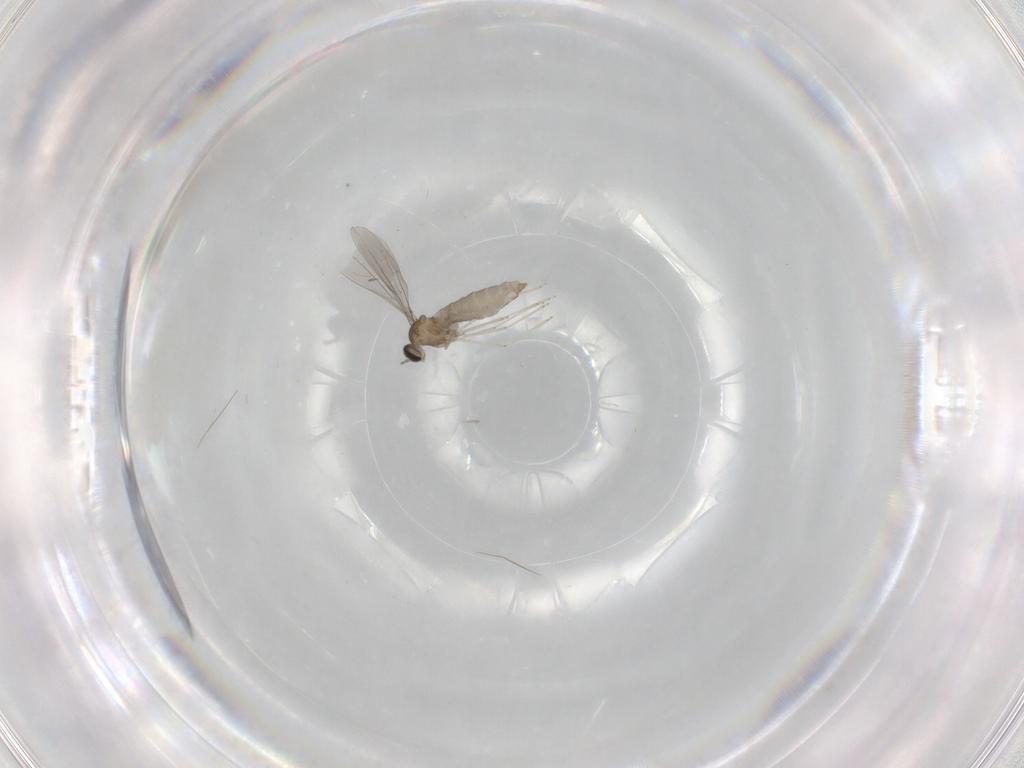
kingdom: Animalia
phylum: Arthropoda
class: Insecta
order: Diptera
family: Cecidomyiidae
